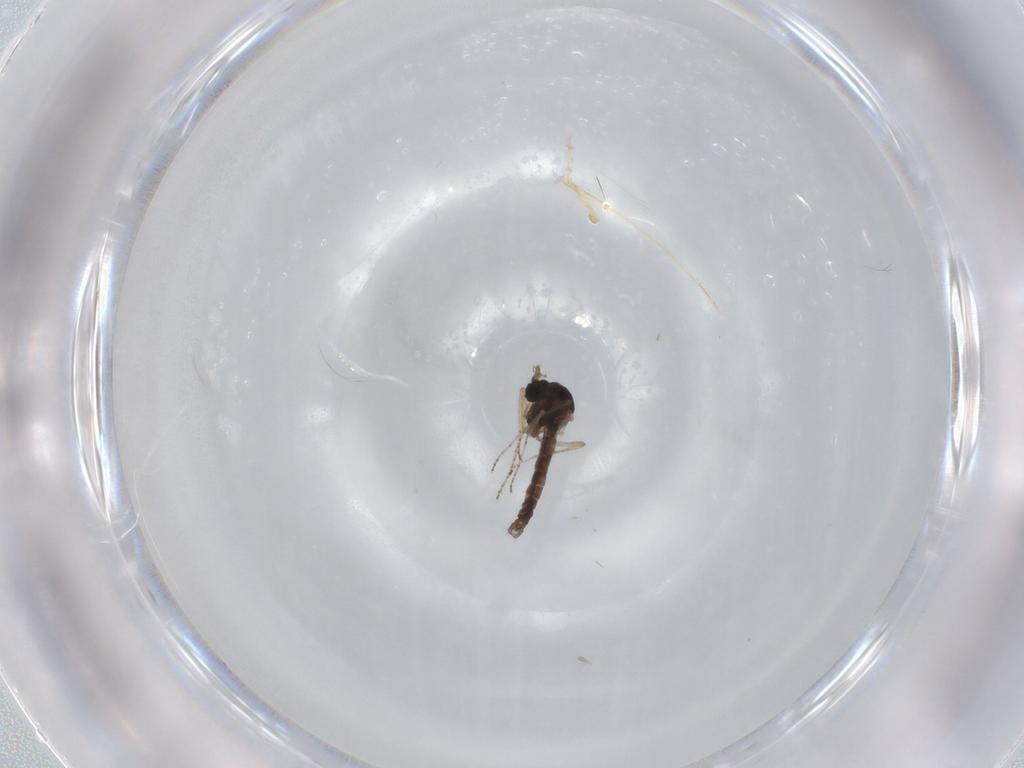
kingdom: Animalia
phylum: Arthropoda
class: Insecta
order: Diptera
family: Ceratopogonidae
